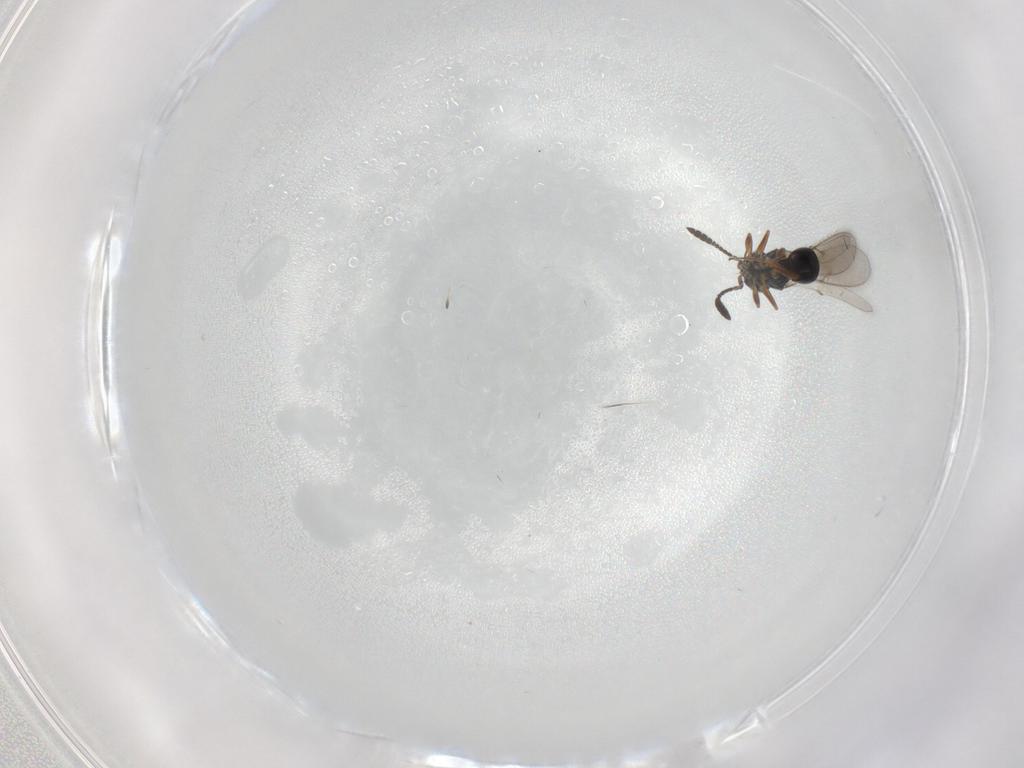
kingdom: Animalia
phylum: Arthropoda
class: Insecta
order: Hymenoptera
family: Scelionidae
